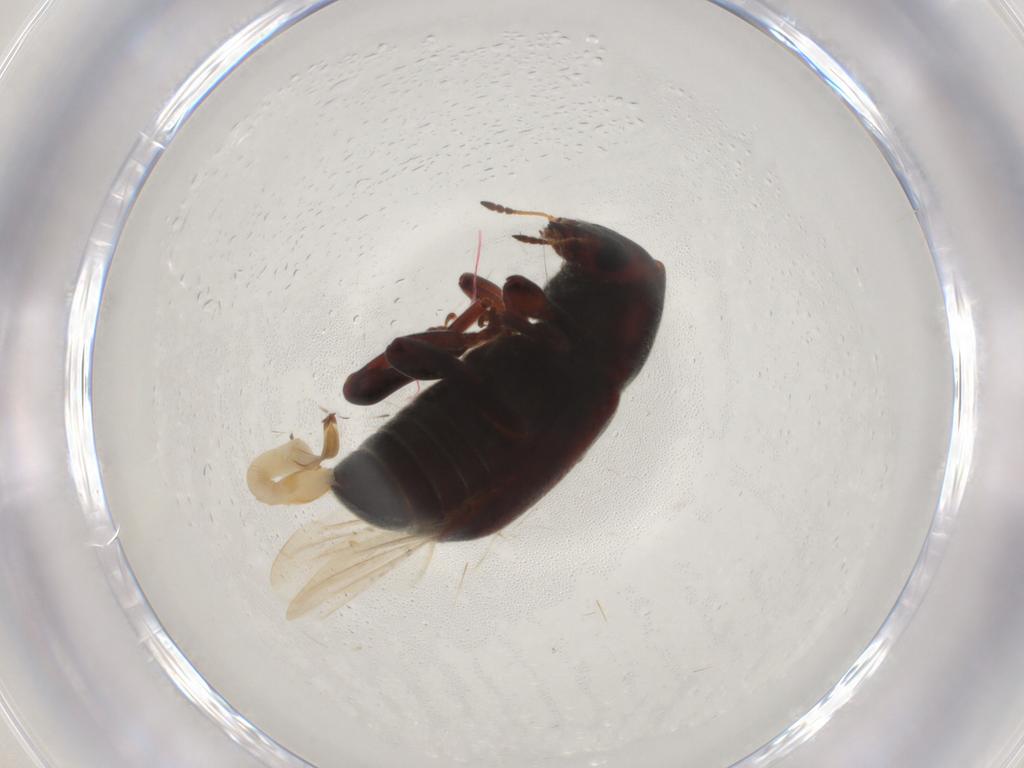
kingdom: Animalia
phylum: Arthropoda
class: Insecta
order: Coleoptera
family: Anthribidae
